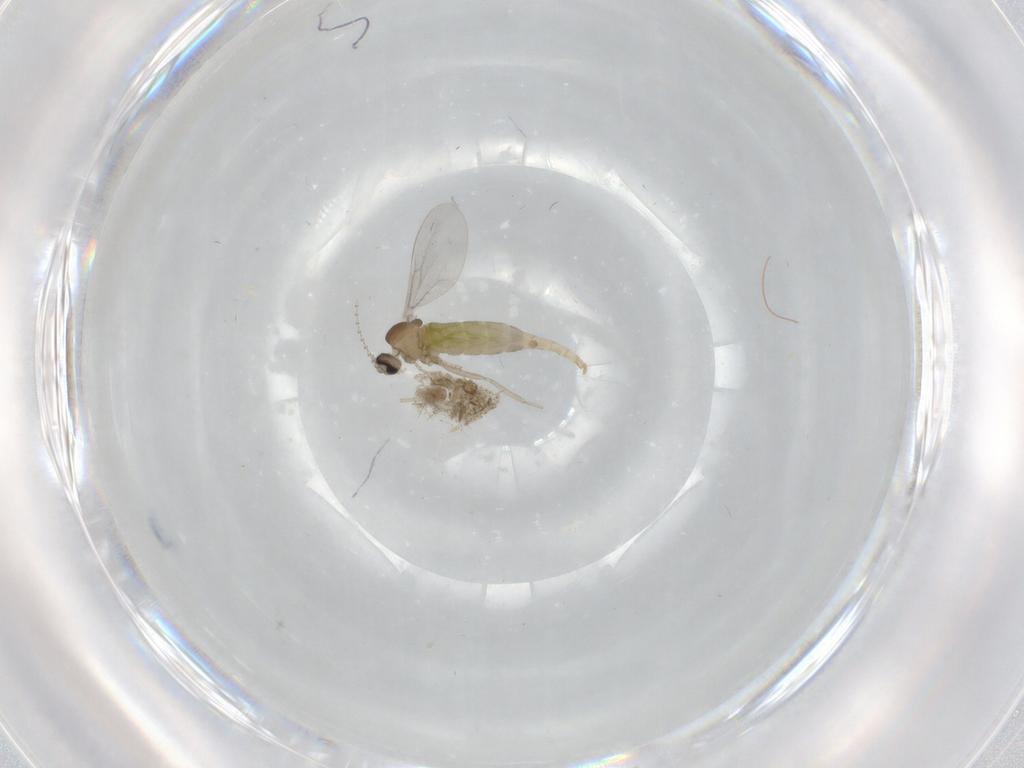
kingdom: Animalia
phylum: Arthropoda
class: Insecta
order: Diptera
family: Cecidomyiidae
